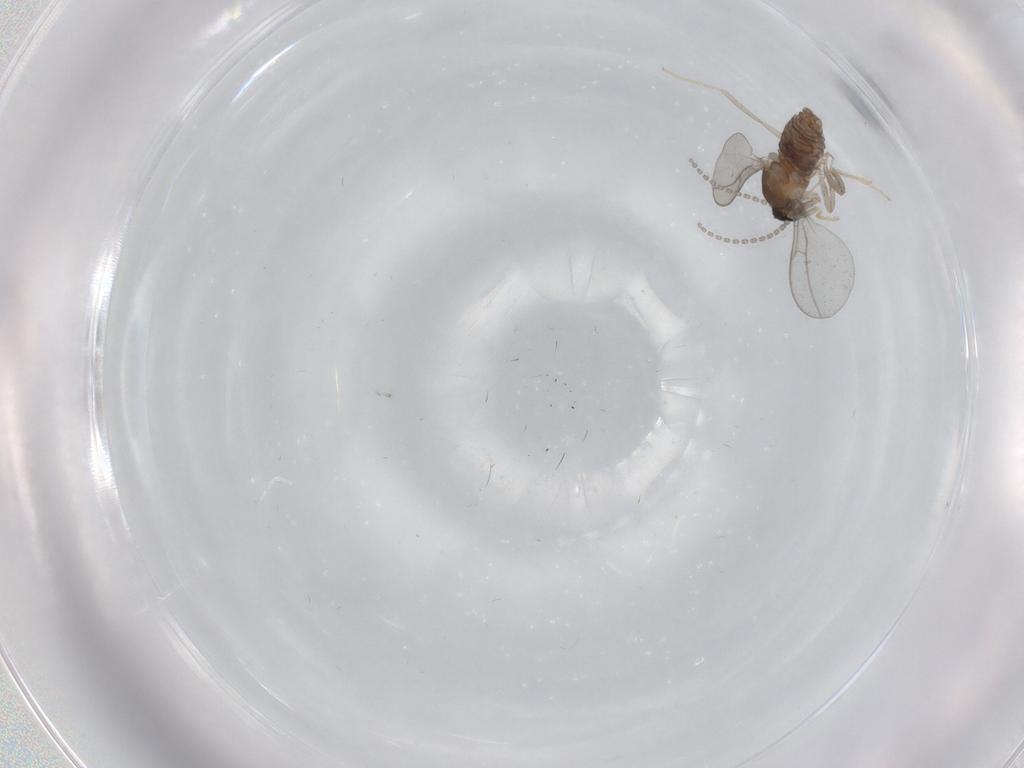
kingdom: Animalia
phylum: Arthropoda
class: Insecta
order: Diptera
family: Cecidomyiidae
